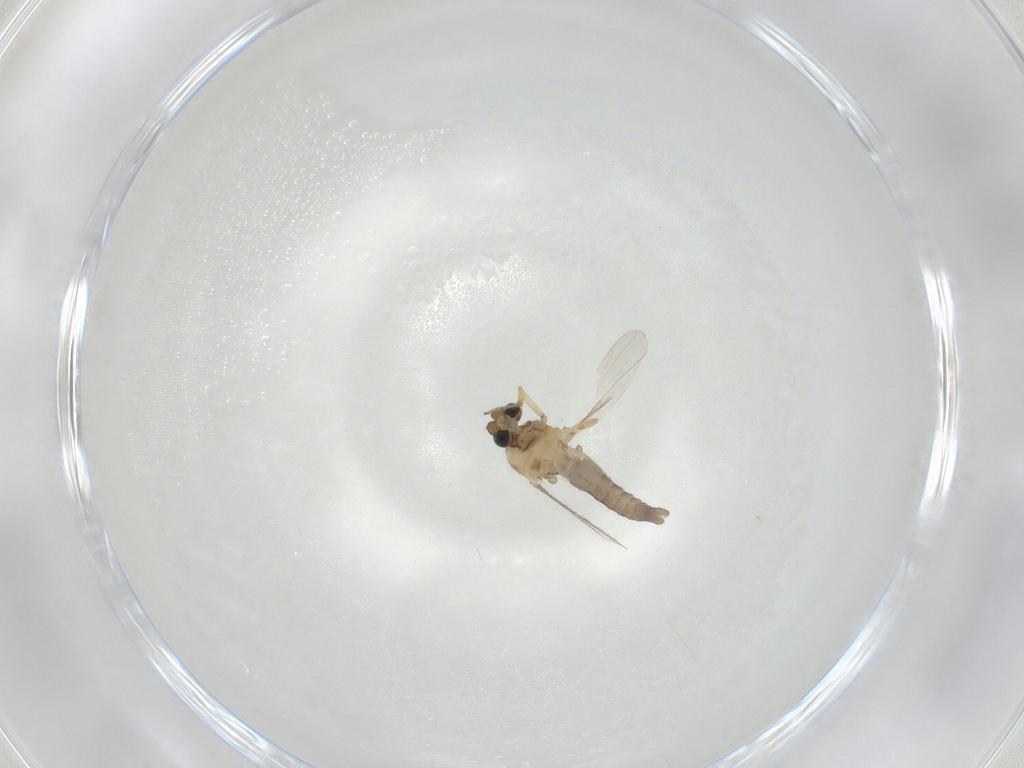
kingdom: Animalia
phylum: Arthropoda
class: Insecta
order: Diptera
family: Ceratopogonidae
